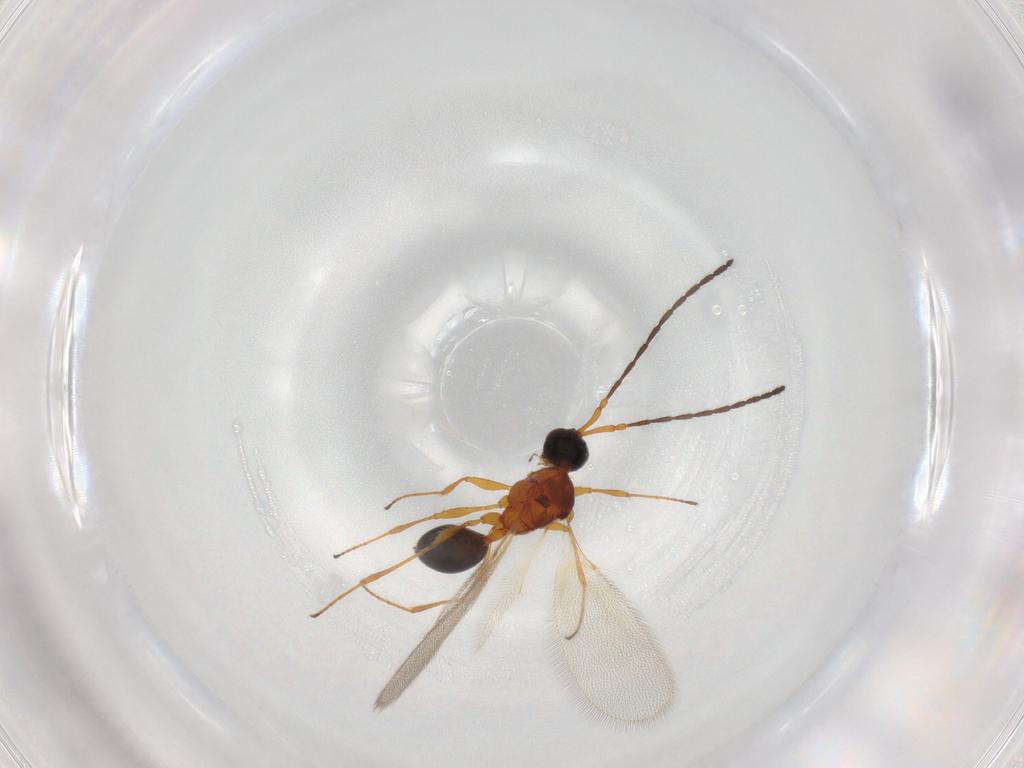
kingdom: Animalia
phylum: Arthropoda
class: Insecta
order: Hymenoptera
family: Diapriidae
